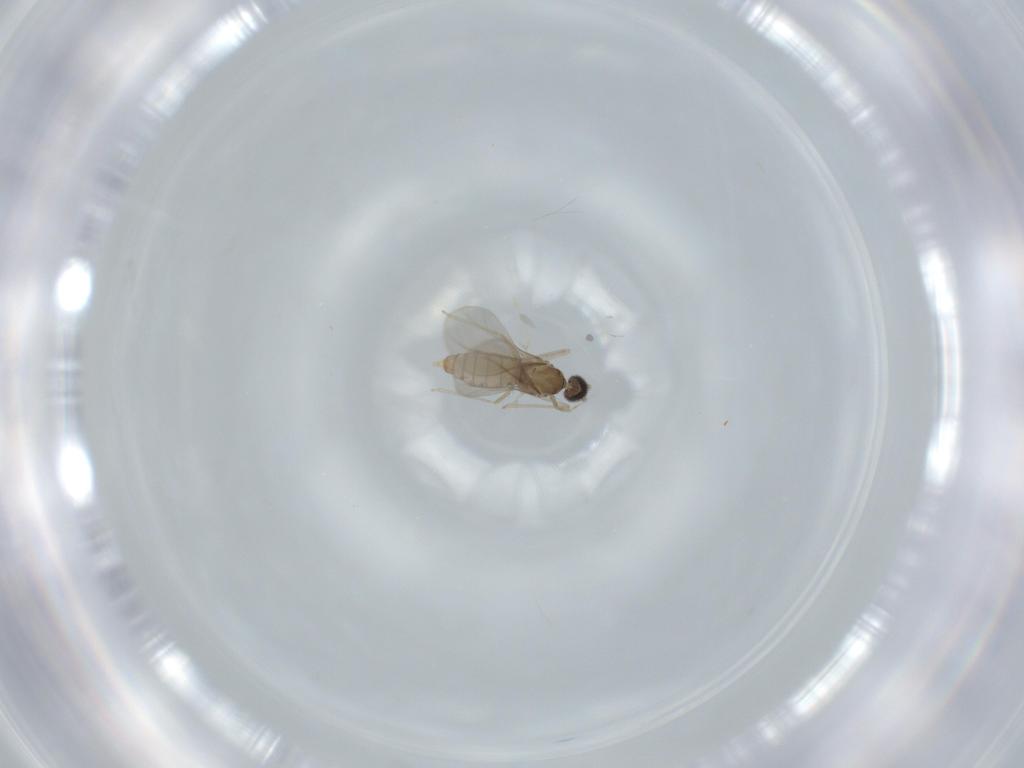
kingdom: Animalia
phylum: Arthropoda
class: Insecta
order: Diptera
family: Cecidomyiidae
